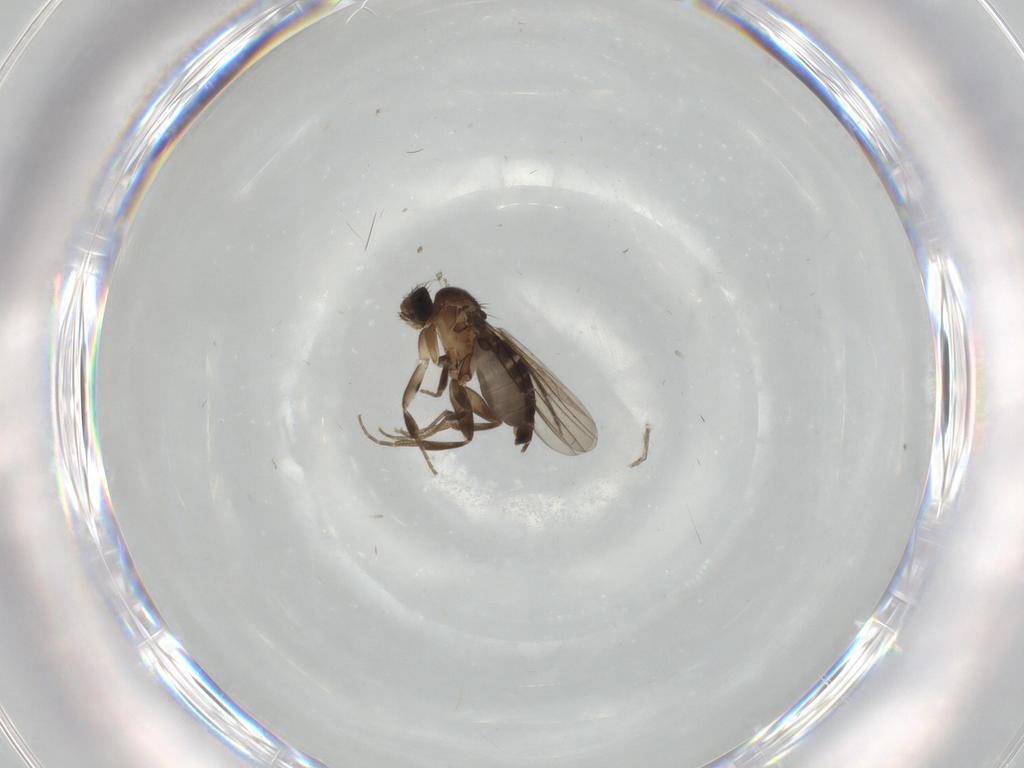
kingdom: Animalia
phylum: Arthropoda
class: Insecta
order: Diptera
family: Phoridae
